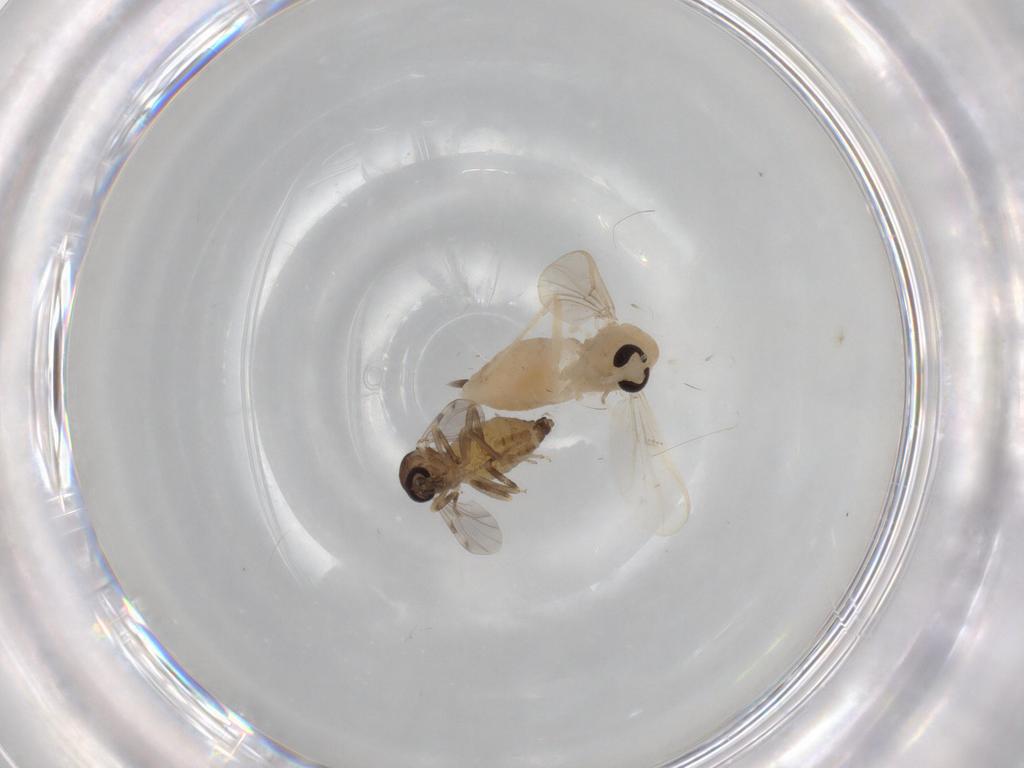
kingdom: Animalia
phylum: Arthropoda
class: Insecta
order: Diptera
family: Chironomidae
